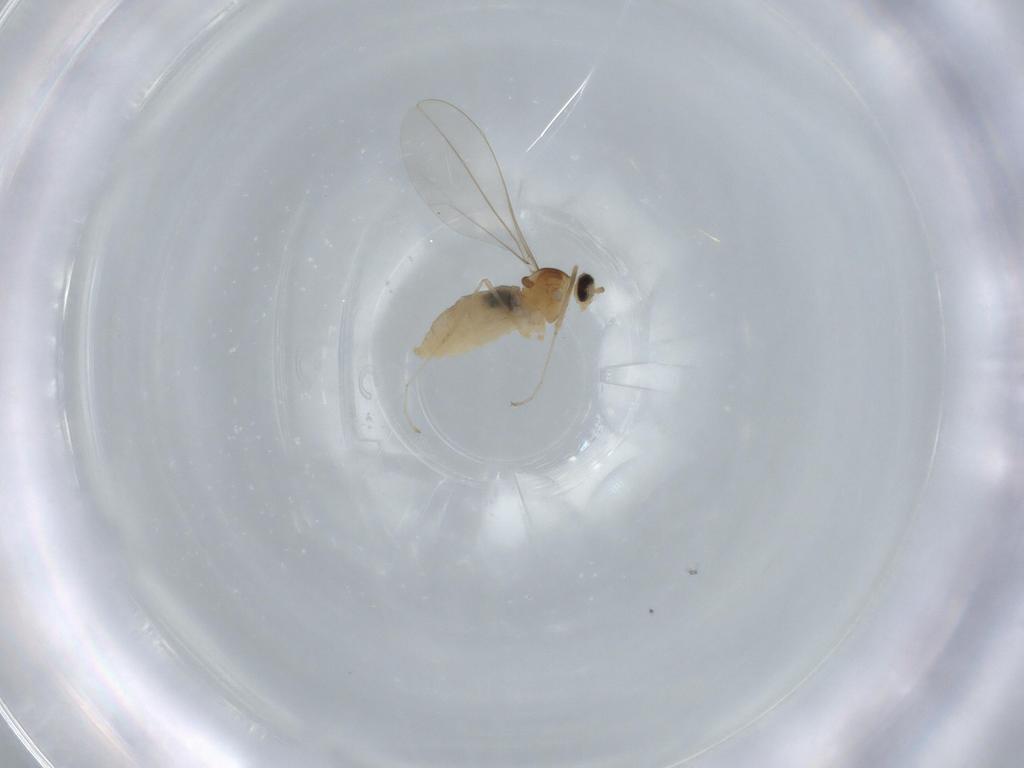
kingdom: Animalia
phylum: Arthropoda
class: Insecta
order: Diptera
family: Cecidomyiidae
